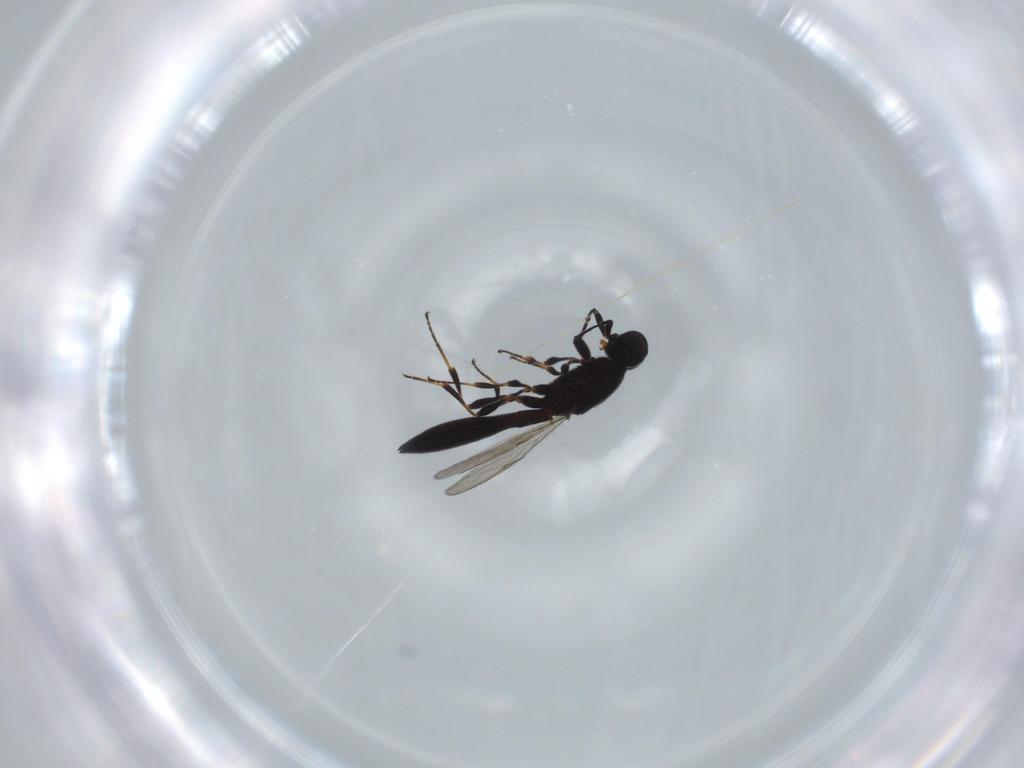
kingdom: Animalia
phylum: Arthropoda
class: Insecta
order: Hymenoptera
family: Scelionidae
